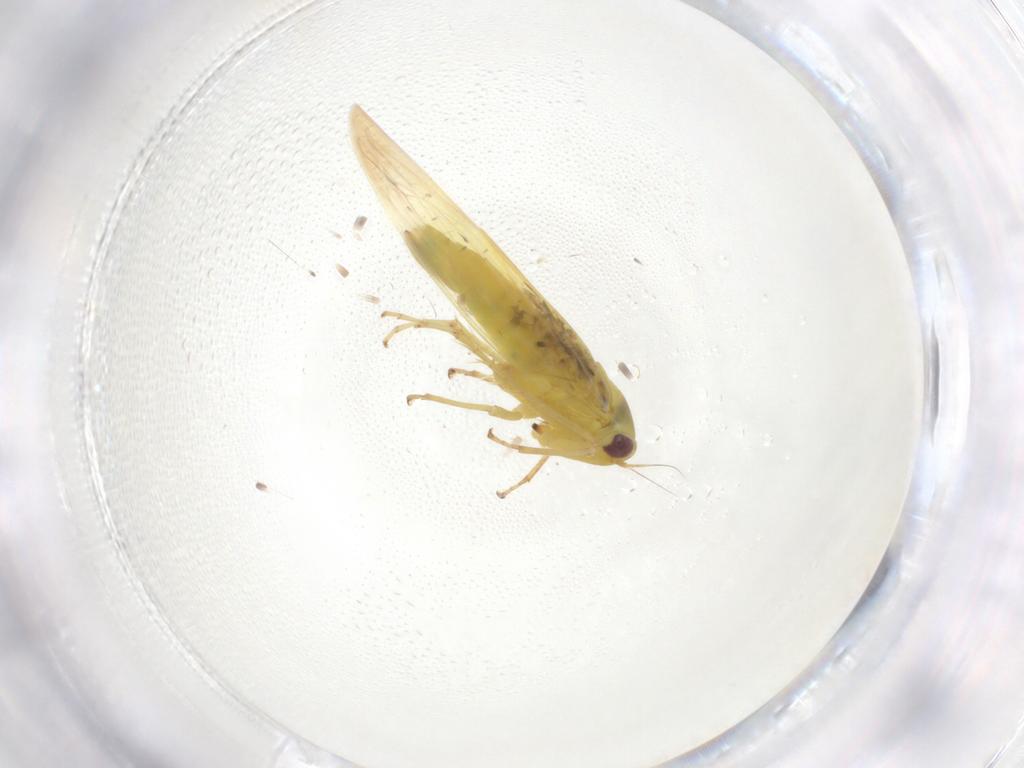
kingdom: Animalia
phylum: Arthropoda
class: Insecta
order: Hemiptera
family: Cicadellidae
